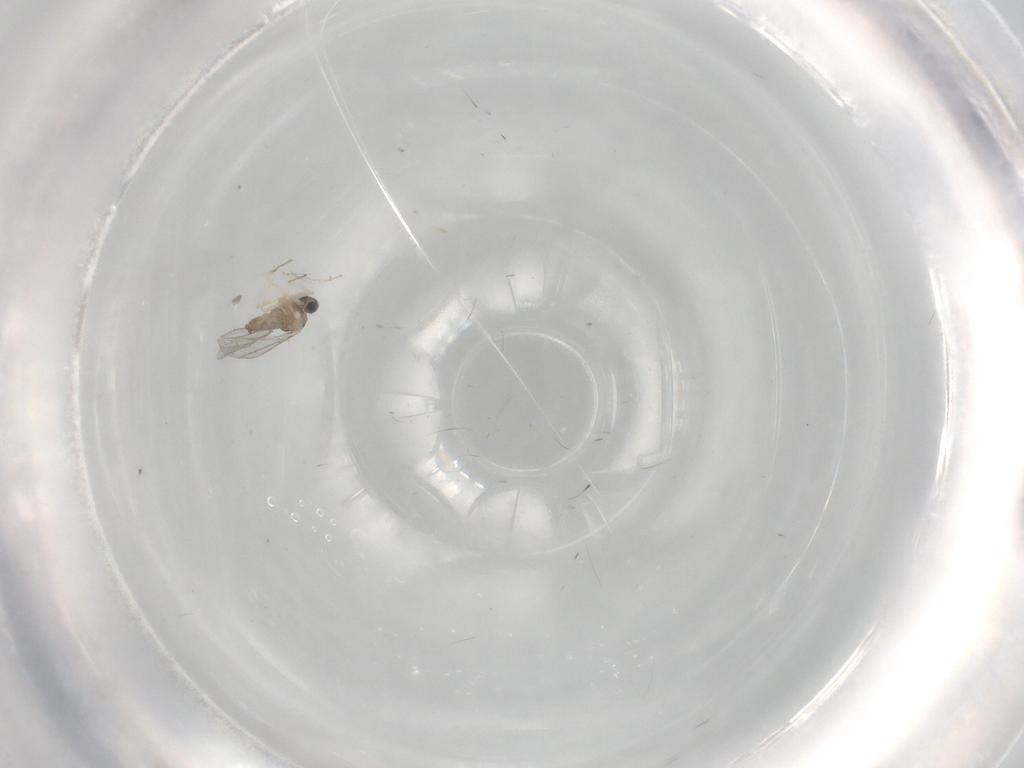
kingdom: Animalia
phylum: Arthropoda
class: Insecta
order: Diptera
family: Cecidomyiidae
